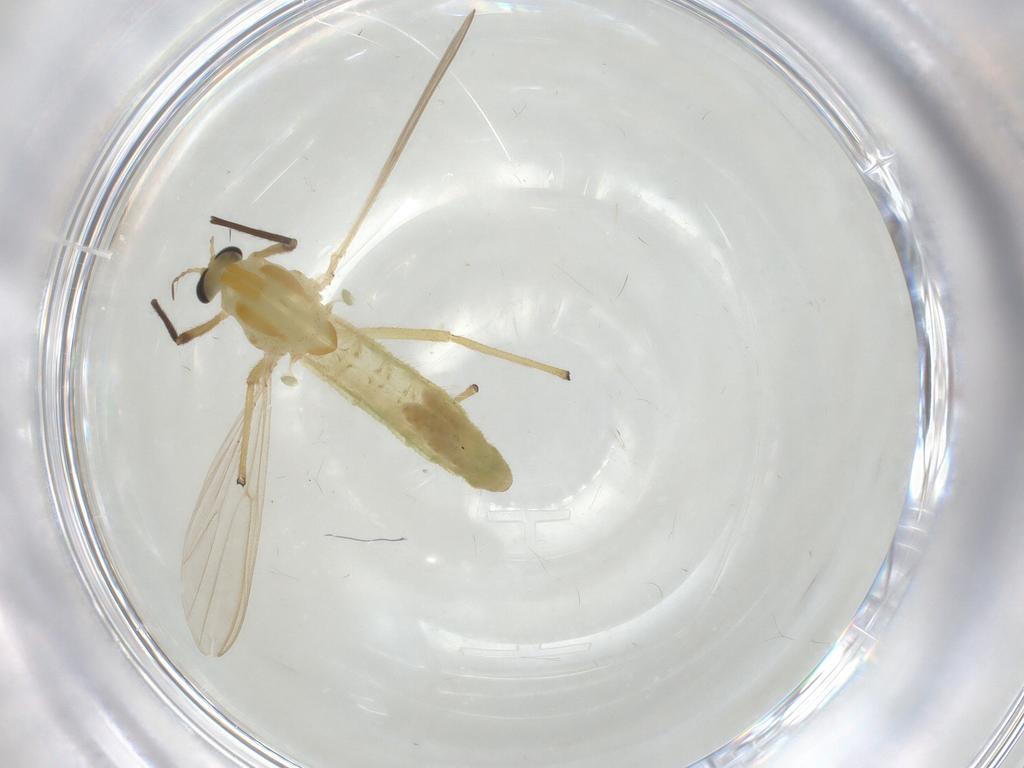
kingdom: Animalia
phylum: Arthropoda
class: Insecta
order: Diptera
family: Chironomidae
